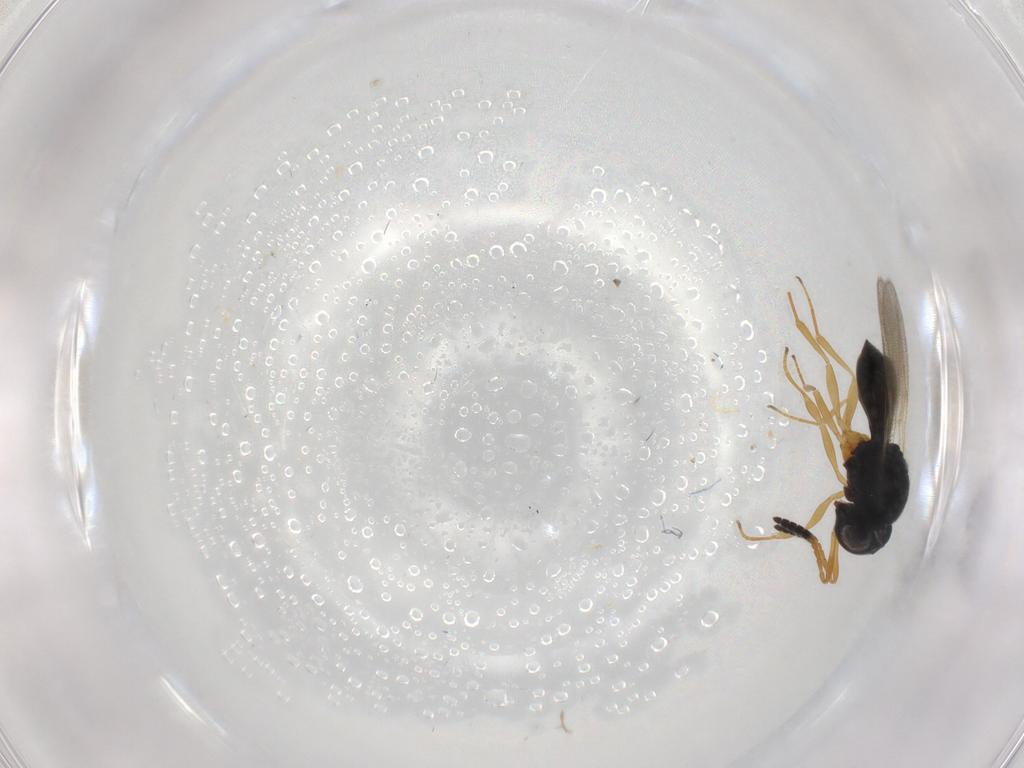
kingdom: Animalia
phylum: Arthropoda
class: Insecta
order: Hymenoptera
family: Scelionidae
